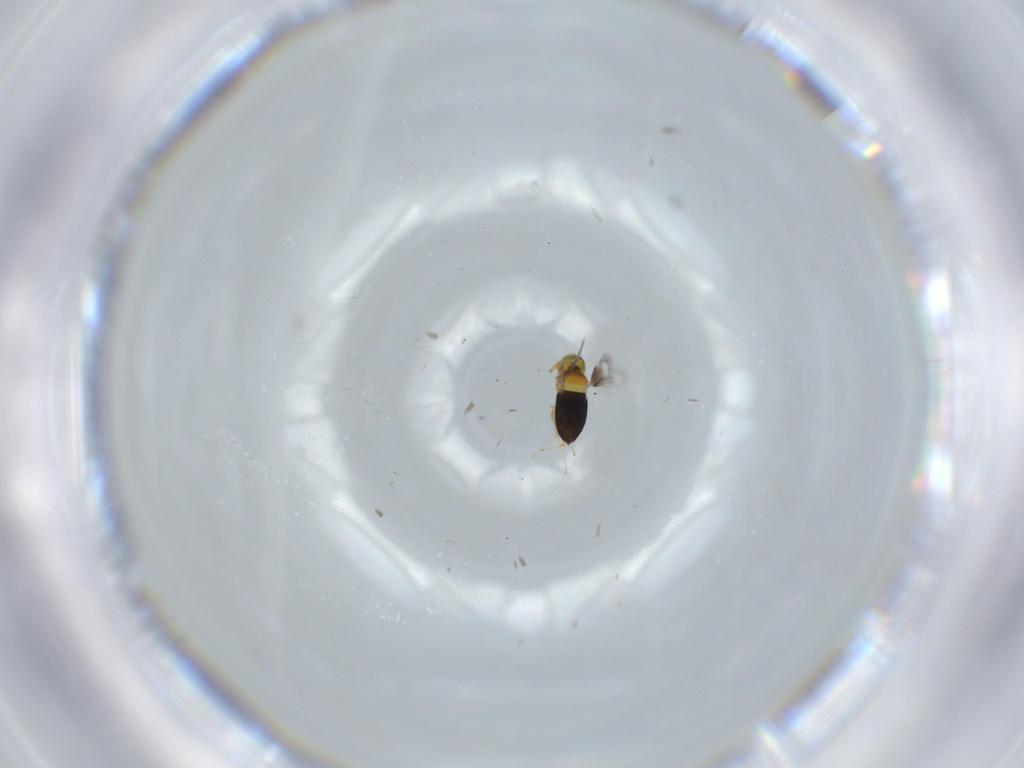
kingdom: Animalia
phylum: Arthropoda
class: Insecta
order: Hymenoptera
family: Signiphoridae
